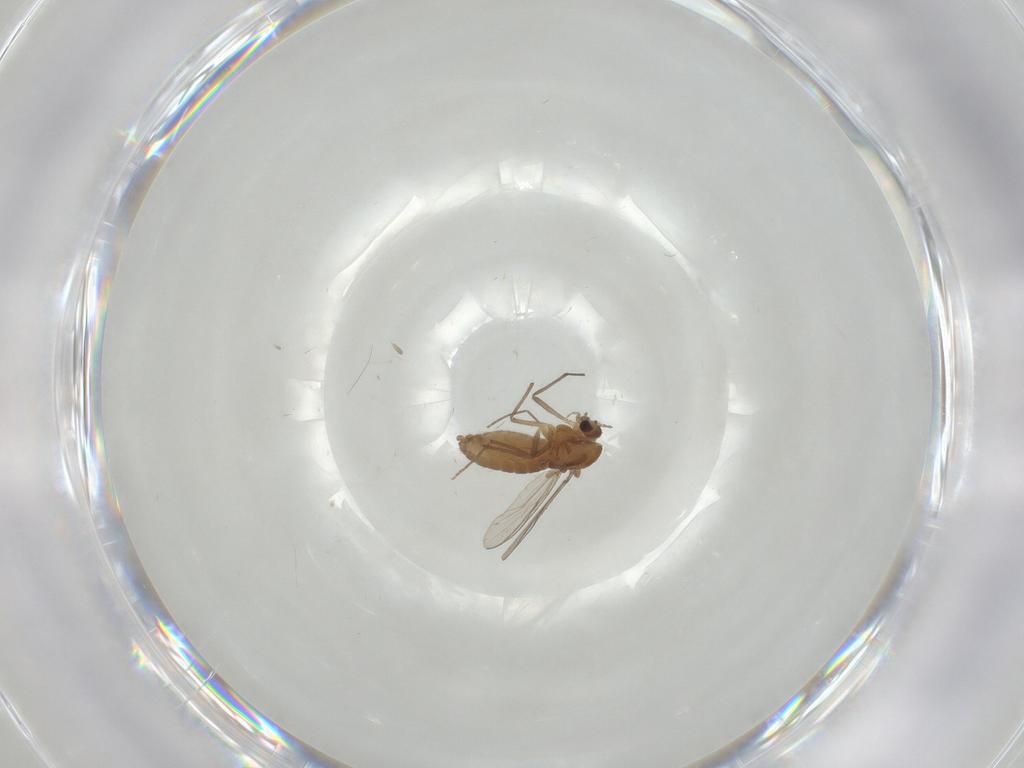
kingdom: Animalia
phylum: Arthropoda
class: Insecta
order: Diptera
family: Chironomidae
